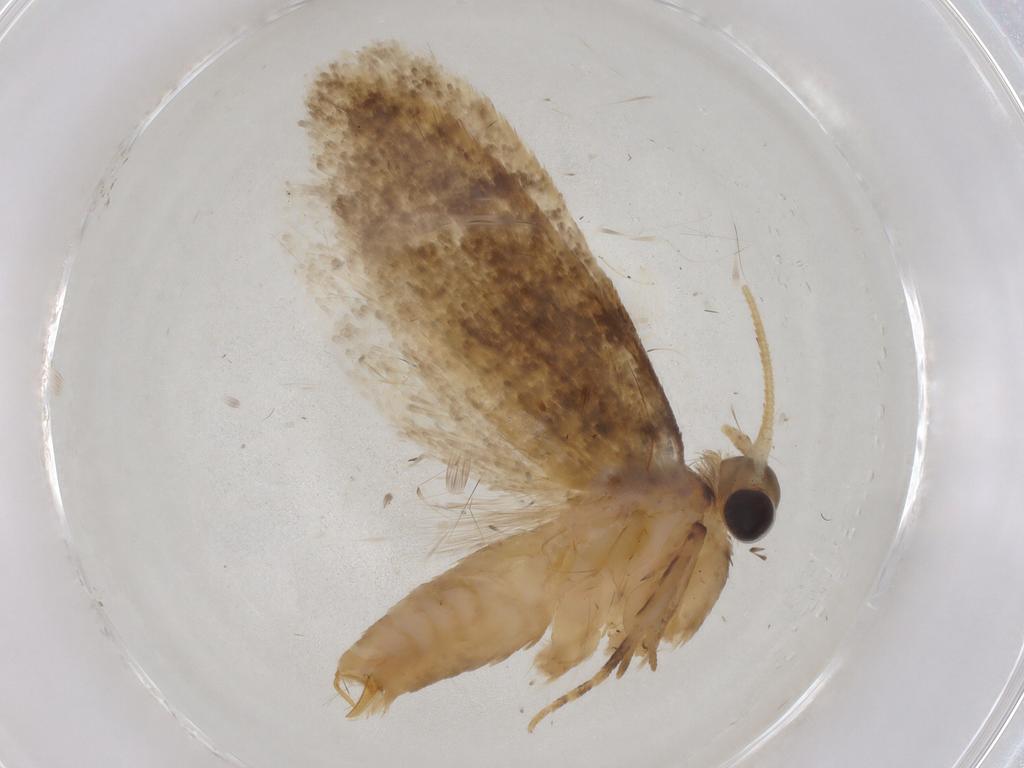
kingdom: Animalia
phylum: Arthropoda
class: Insecta
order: Lepidoptera
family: Tineidae
